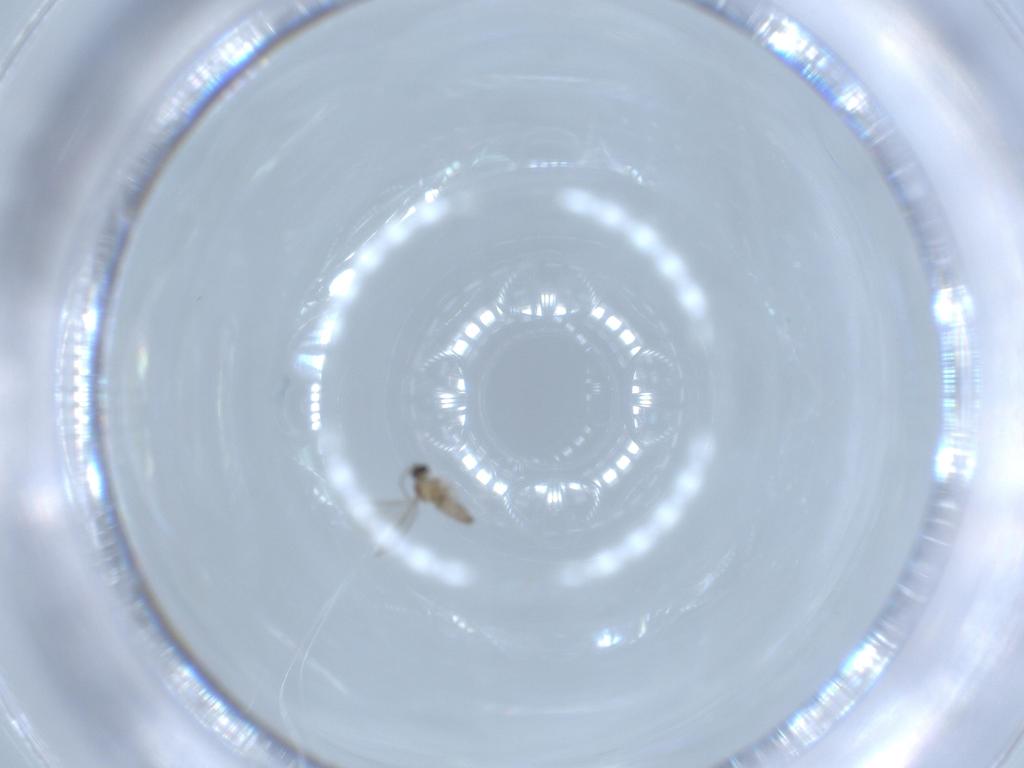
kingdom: Animalia
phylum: Arthropoda
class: Insecta
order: Diptera
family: Cecidomyiidae
